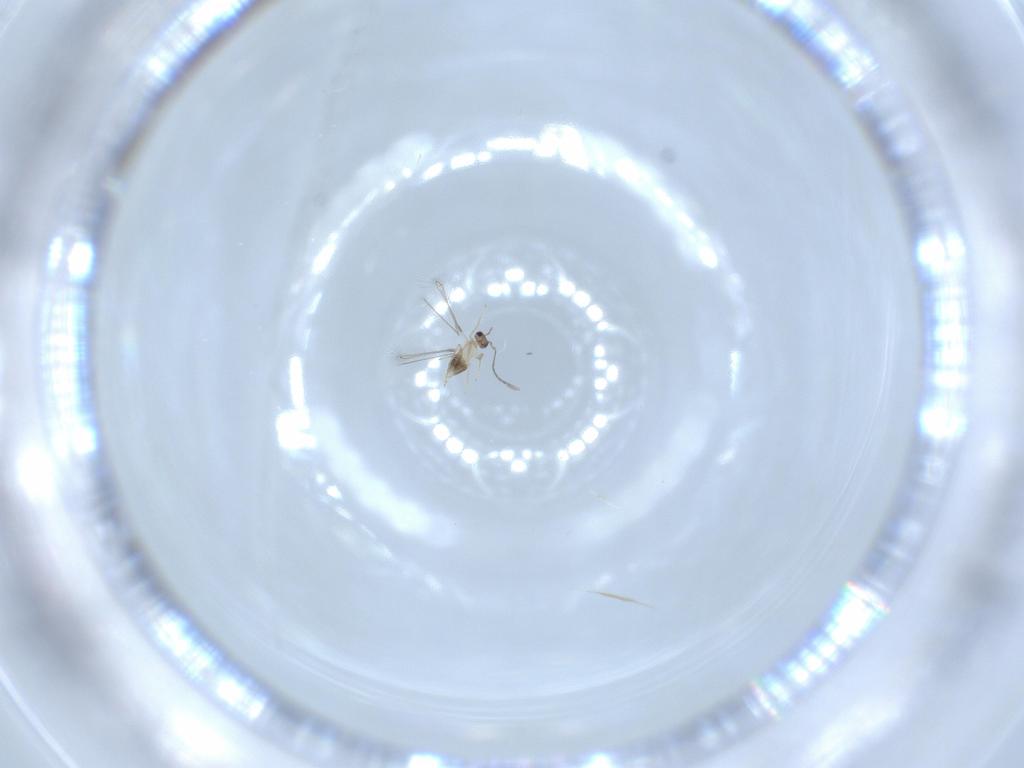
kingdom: Animalia
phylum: Arthropoda
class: Insecta
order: Hymenoptera
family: Mymaridae
